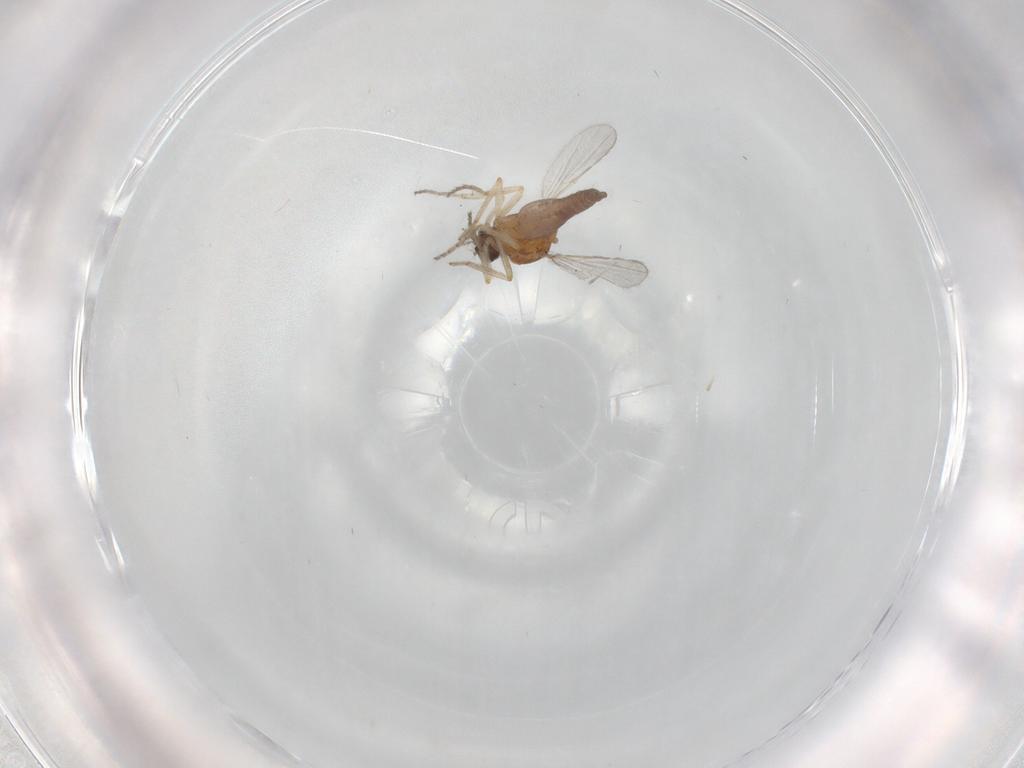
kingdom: Animalia
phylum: Arthropoda
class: Insecta
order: Diptera
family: Ceratopogonidae
